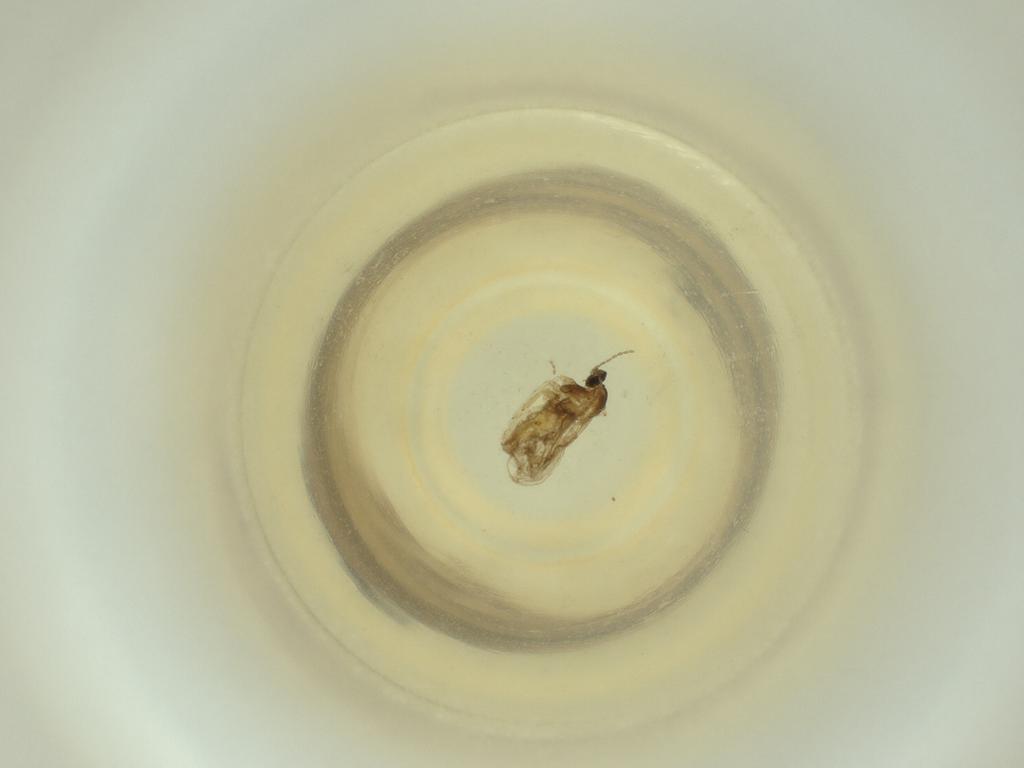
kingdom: Animalia
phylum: Arthropoda
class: Insecta
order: Diptera
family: Cecidomyiidae
